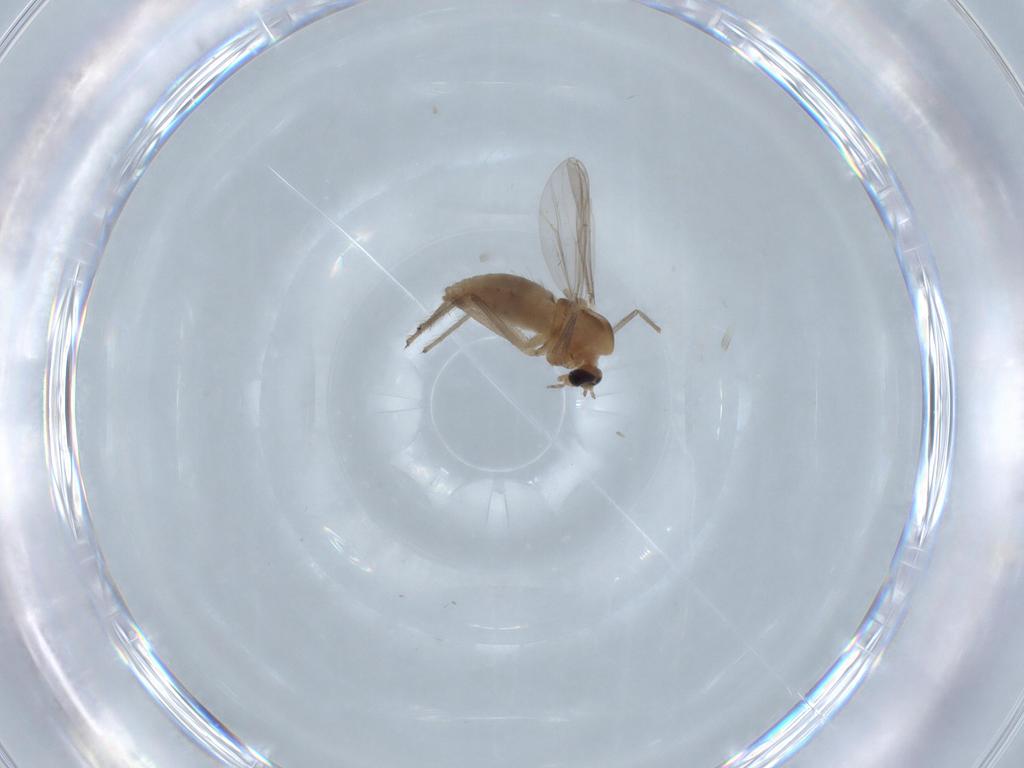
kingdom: Animalia
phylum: Arthropoda
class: Insecta
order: Diptera
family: Chironomidae
